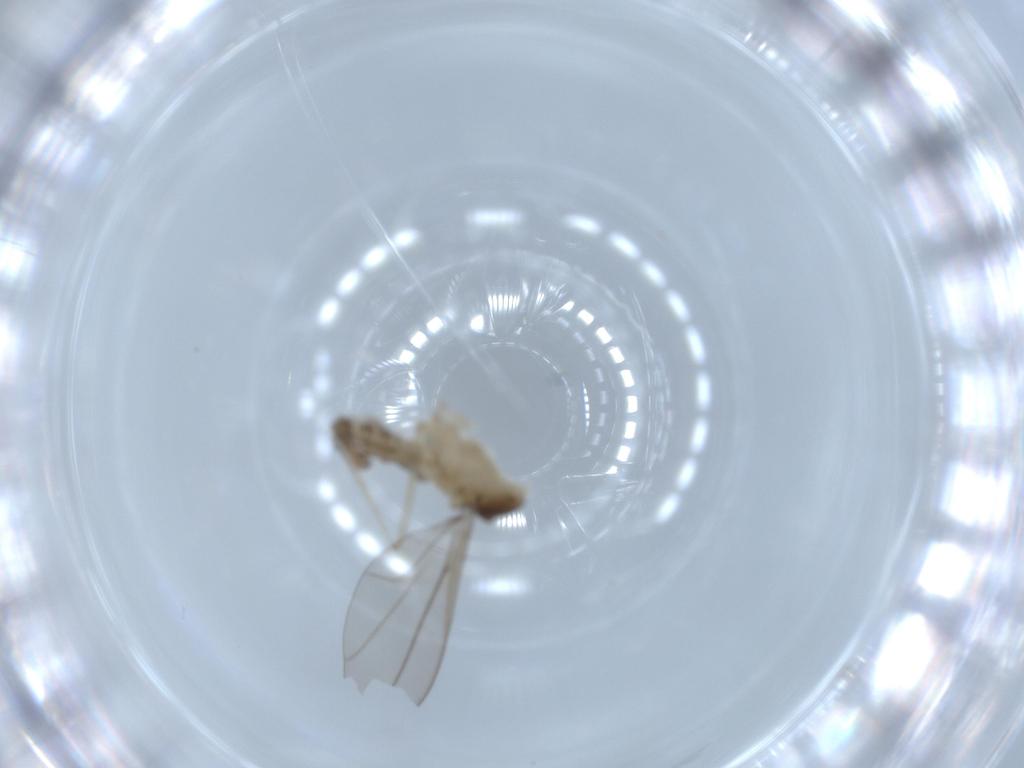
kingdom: Animalia
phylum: Arthropoda
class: Insecta
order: Diptera
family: Cecidomyiidae
